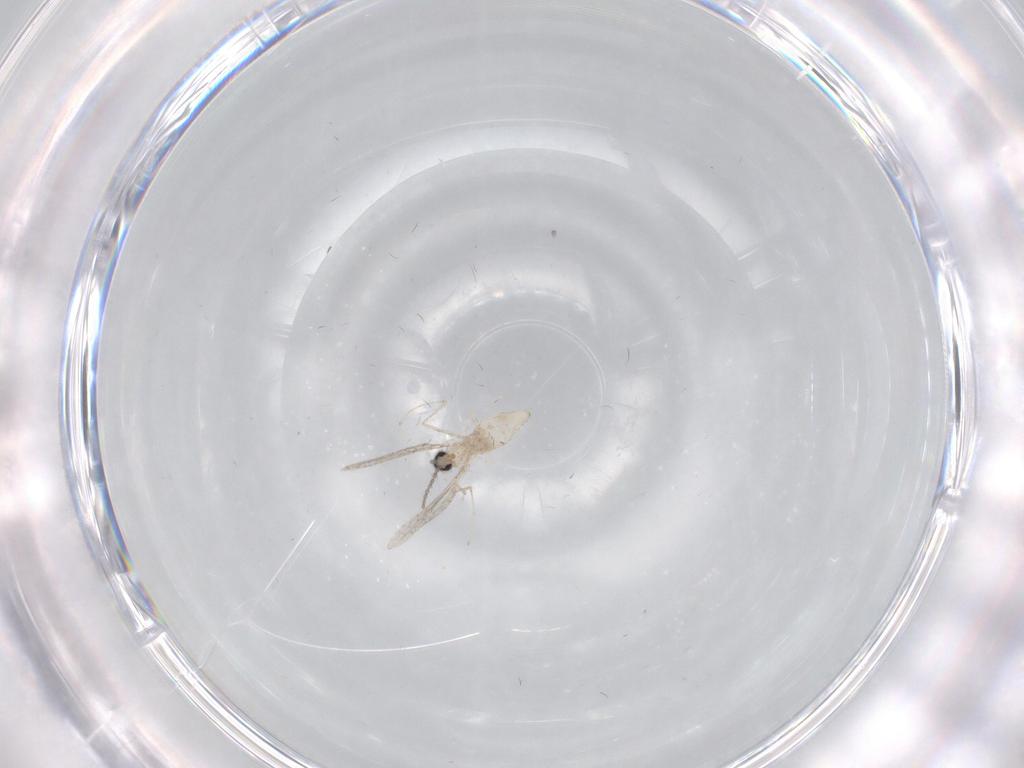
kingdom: Animalia
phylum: Arthropoda
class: Insecta
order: Diptera
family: Cecidomyiidae
